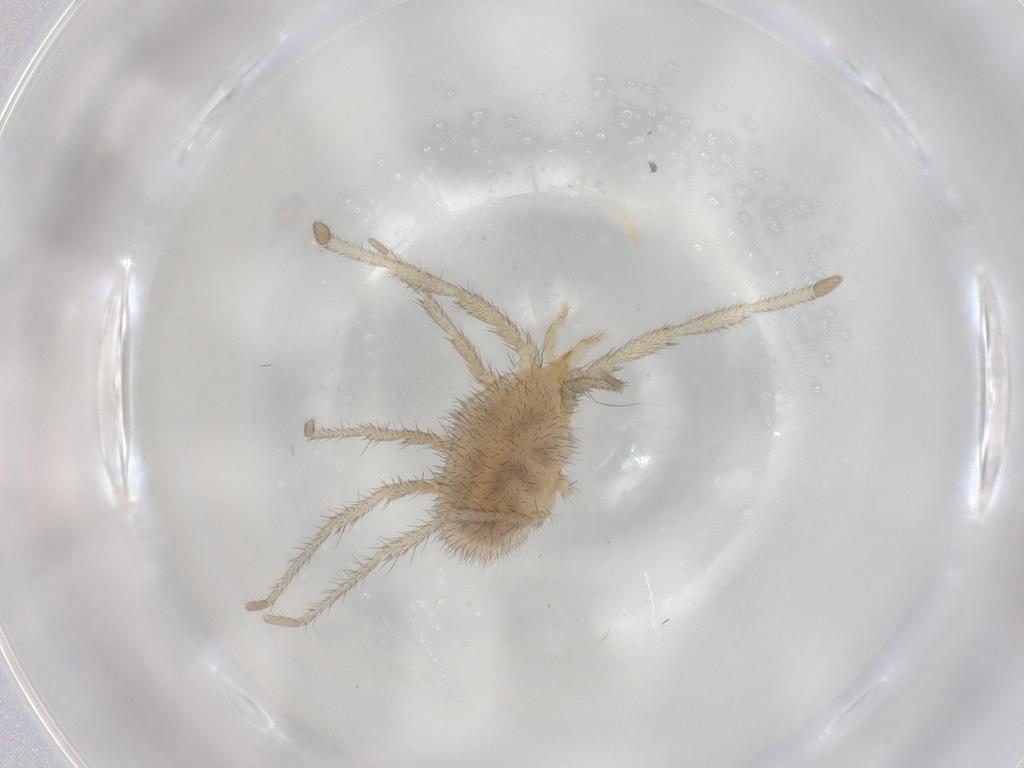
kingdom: Animalia
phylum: Arthropoda
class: Arachnida
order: Trombidiformes
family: Erythraeidae
